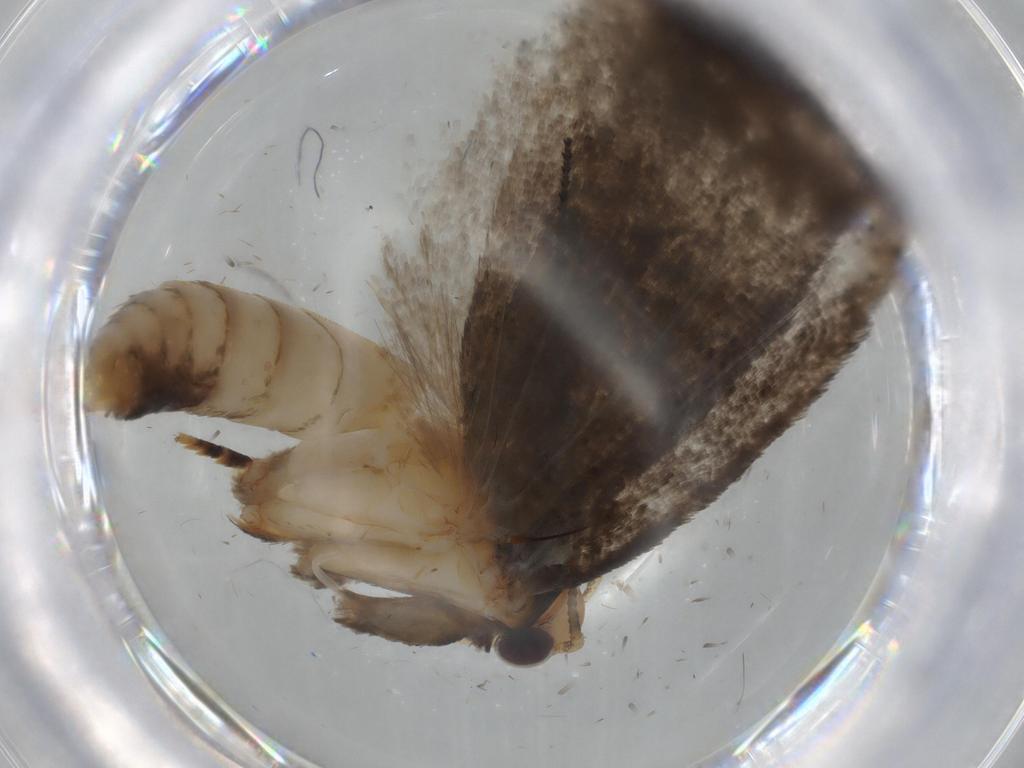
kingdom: Animalia
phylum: Arthropoda
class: Insecta
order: Lepidoptera
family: Oecophoridae
